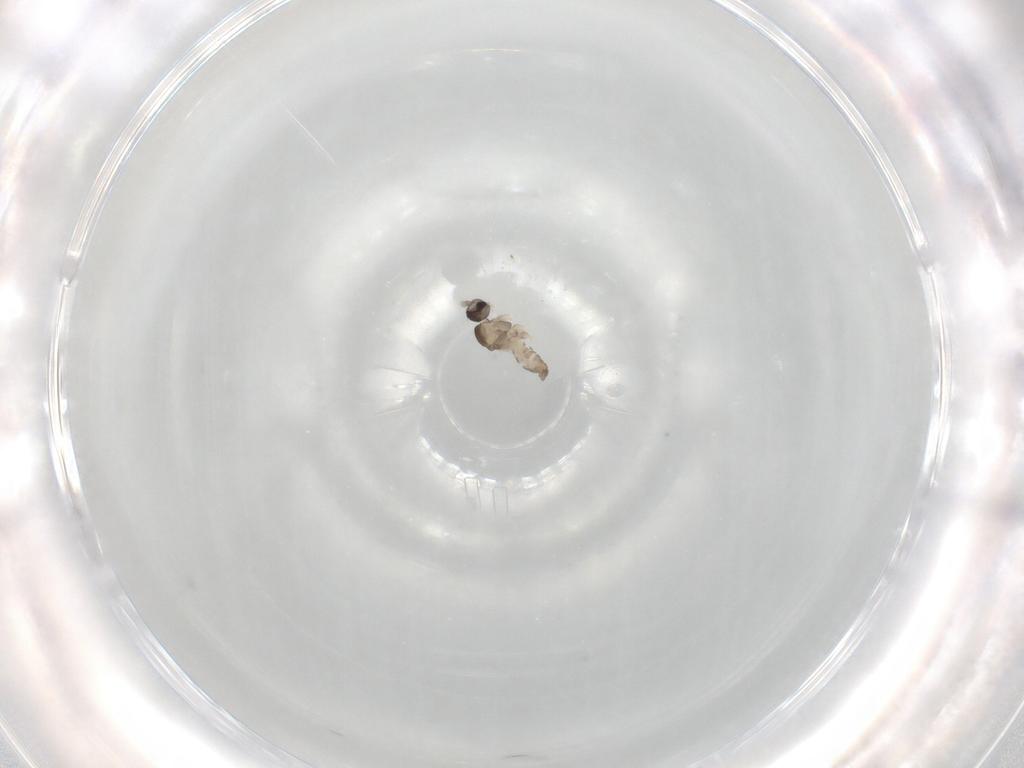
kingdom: Animalia
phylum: Arthropoda
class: Insecta
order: Diptera
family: Cecidomyiidae
